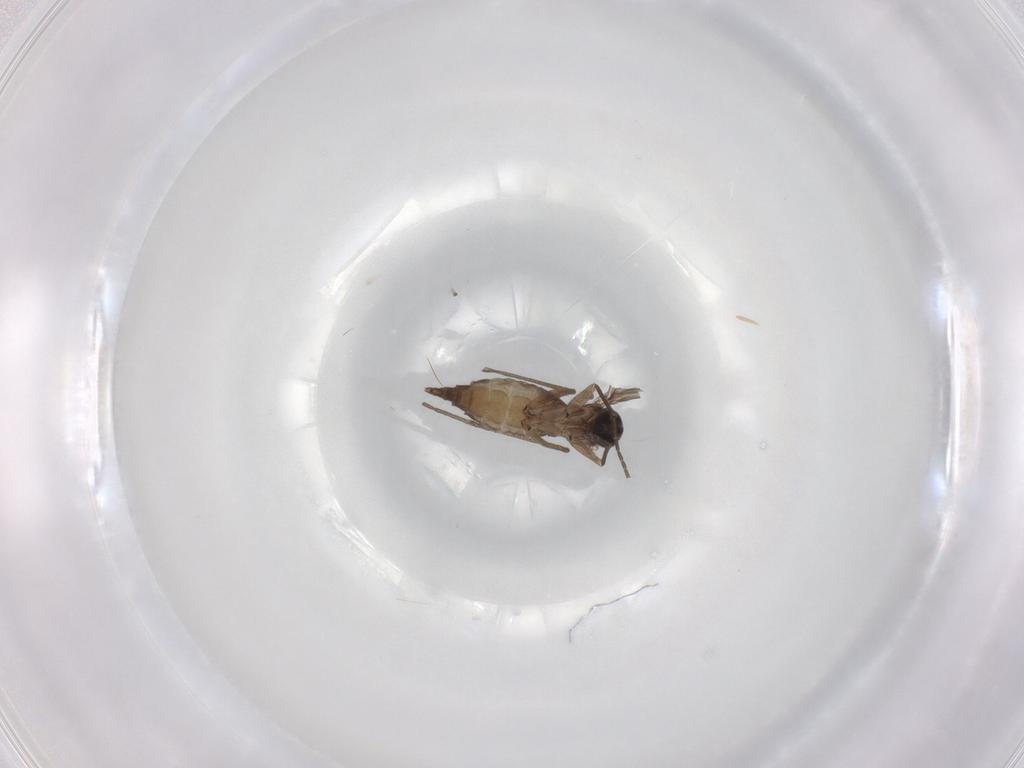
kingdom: Animalia
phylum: Arthropoda
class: Insecta
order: Diptera
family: Sciaridae
